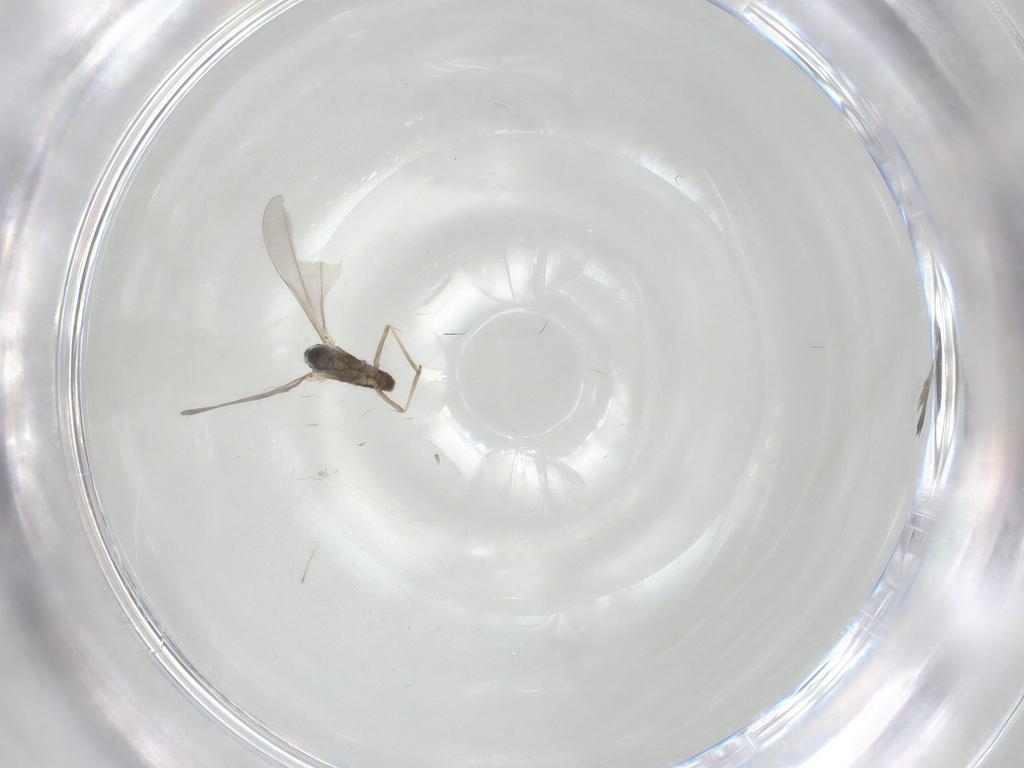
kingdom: Animalia
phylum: Arthropoda
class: Insecta
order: Diptera
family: Cecidomyiidae
